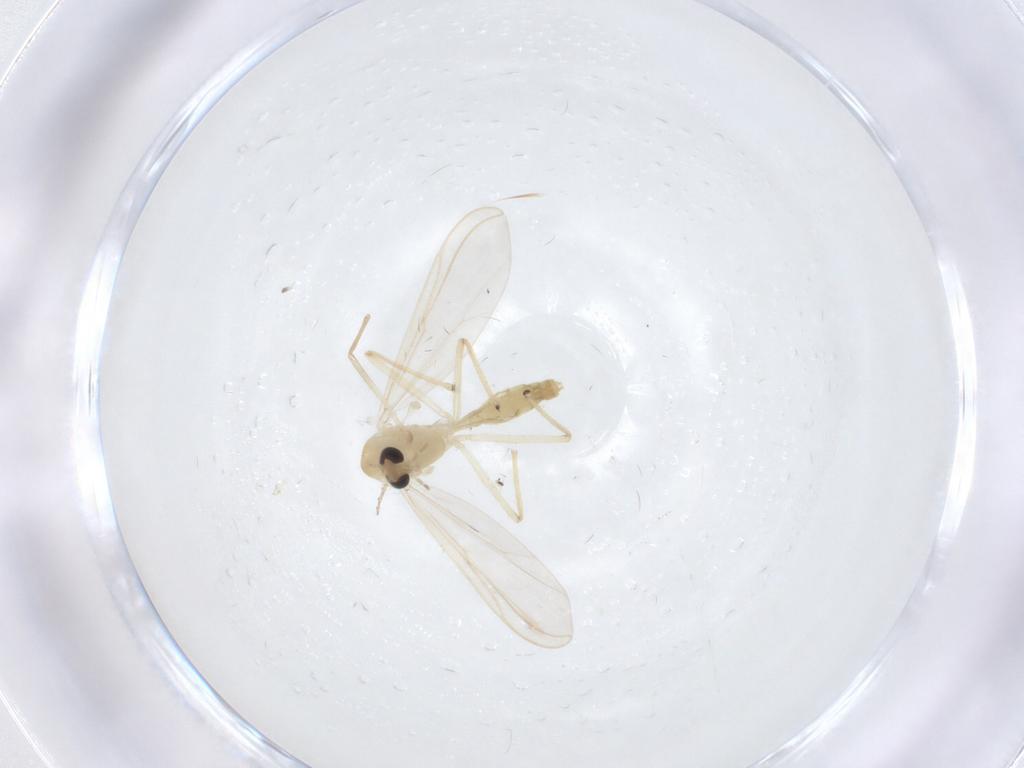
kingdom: Animalia
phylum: Arthropoda
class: Insecta
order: Diptera
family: Chironomidae
